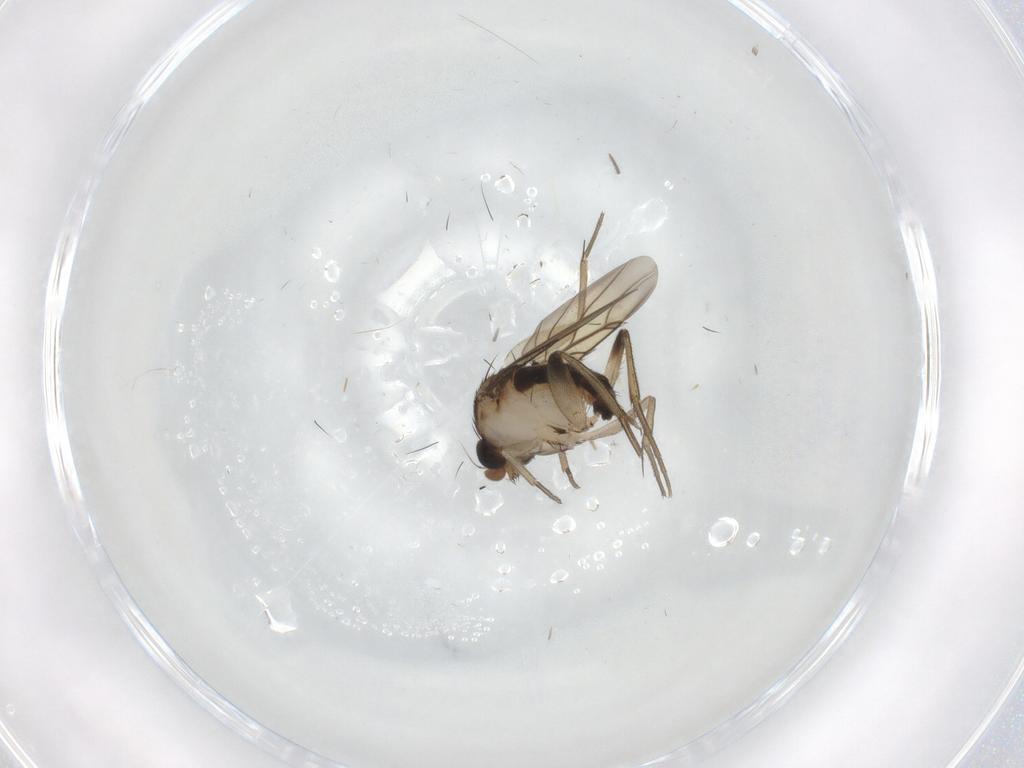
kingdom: Animalia
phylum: Arthropoda
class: Insecta
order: Diptera
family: Phoridae
